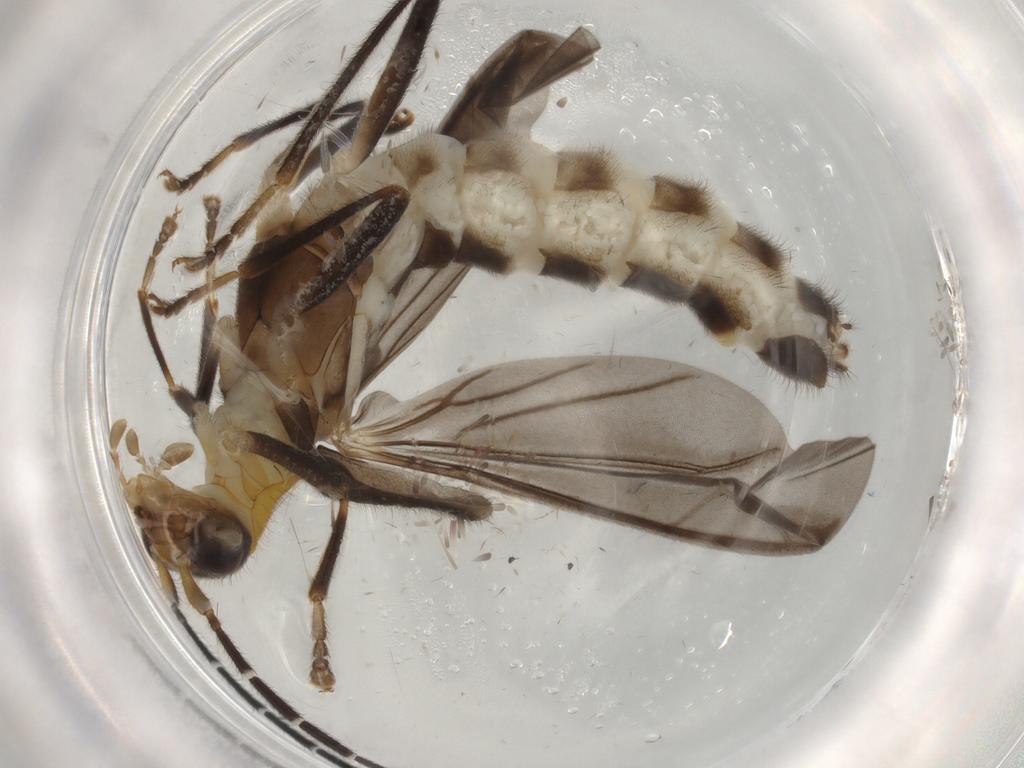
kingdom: Animalia
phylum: Arthropoda
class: Insecta
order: Coleoptera
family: Cantharidae
